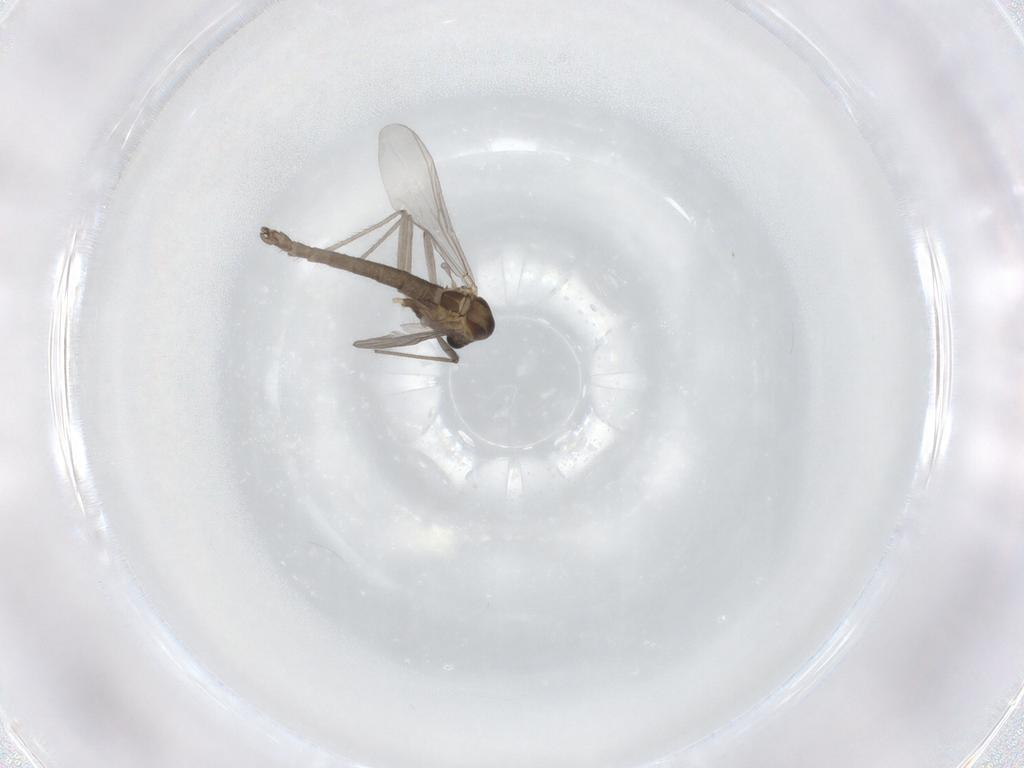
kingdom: Animalia
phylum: Arthropoda
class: Insecta
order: Diptera
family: Chironomidae
